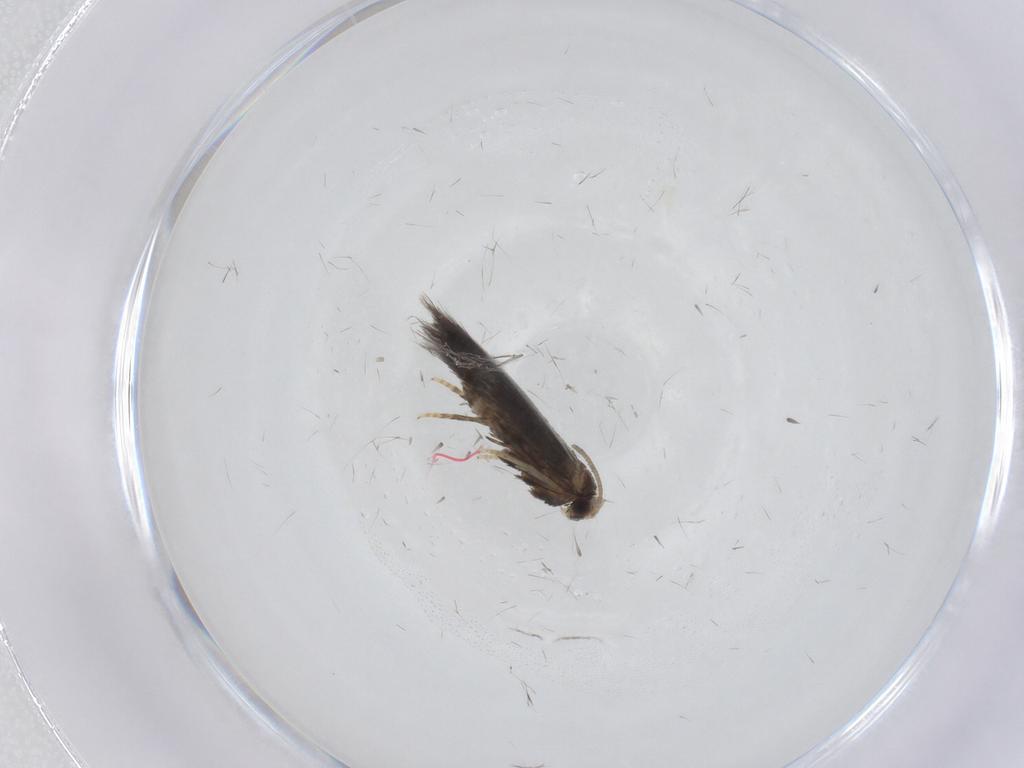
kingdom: Animalia
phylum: Arthropoda
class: Insecta
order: Lepidoptera
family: Nepticulidae
